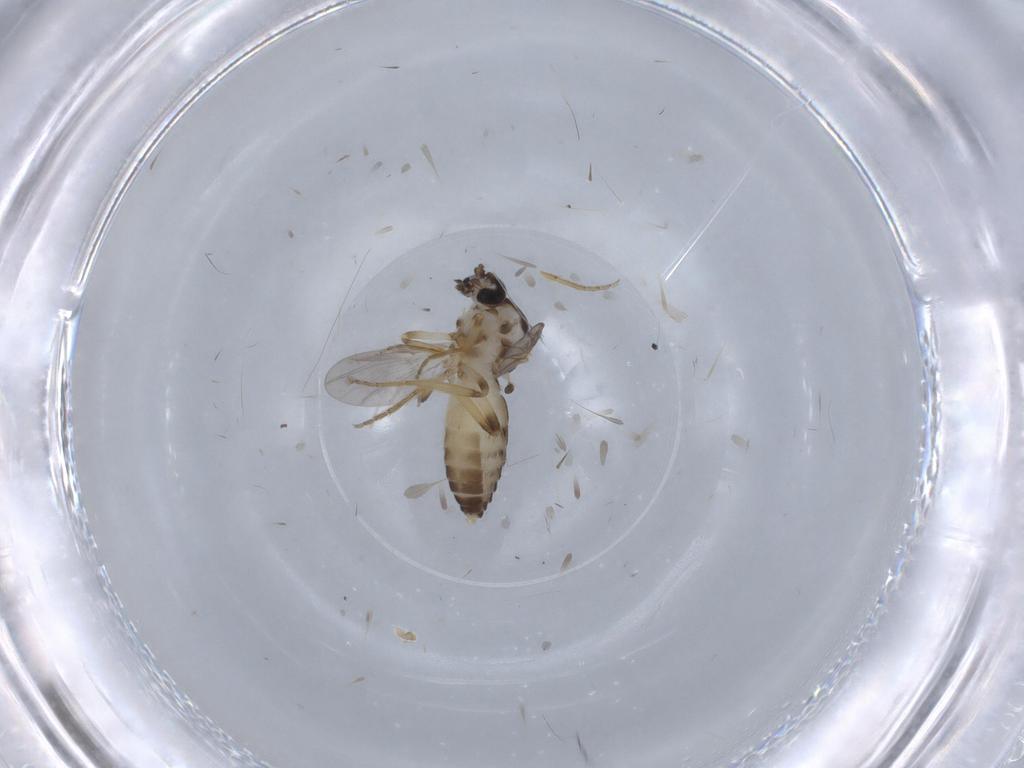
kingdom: Animalia
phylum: Arthropoda
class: Insecta
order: Diptera
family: Ceratopogonidae
